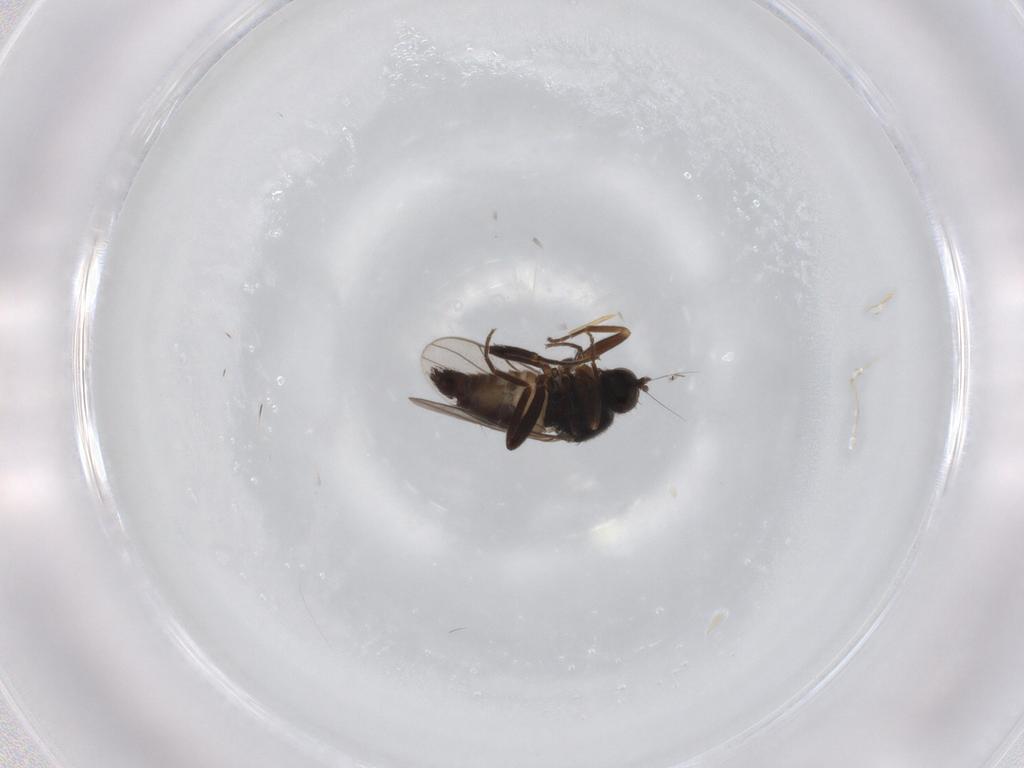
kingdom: Animalia
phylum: Arthropoda
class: Insecta
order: Diptera
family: Hybotidae
